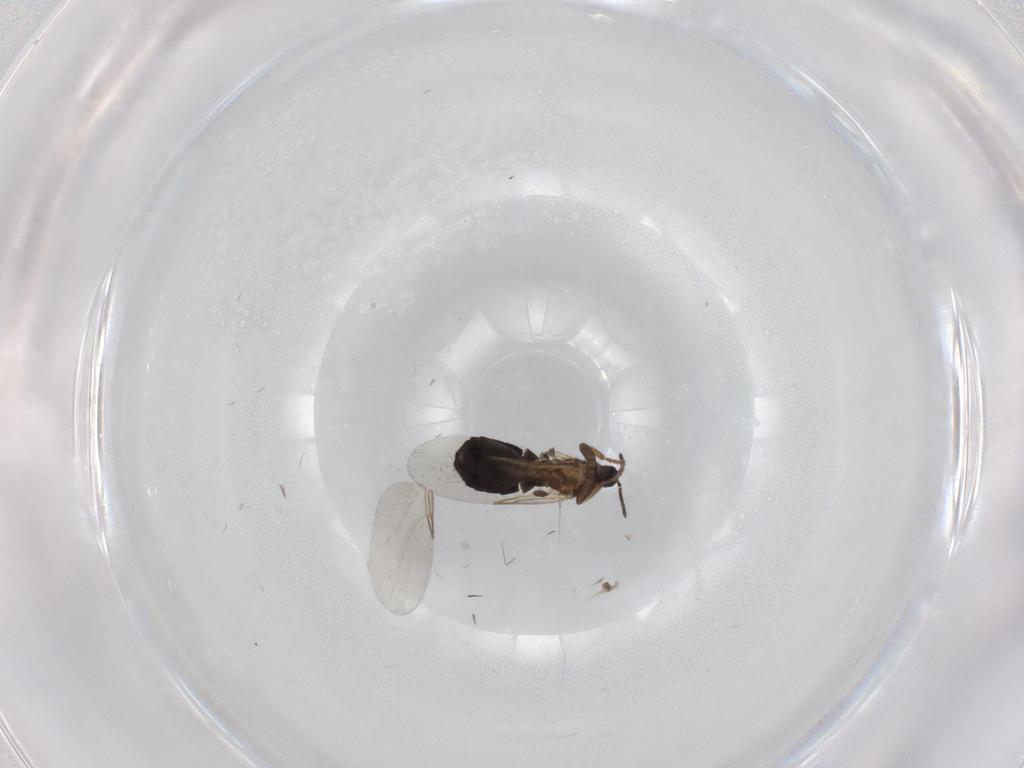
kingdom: Animalia
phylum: Arthropoda
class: Insecta
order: Diptera
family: Scatopsidae
